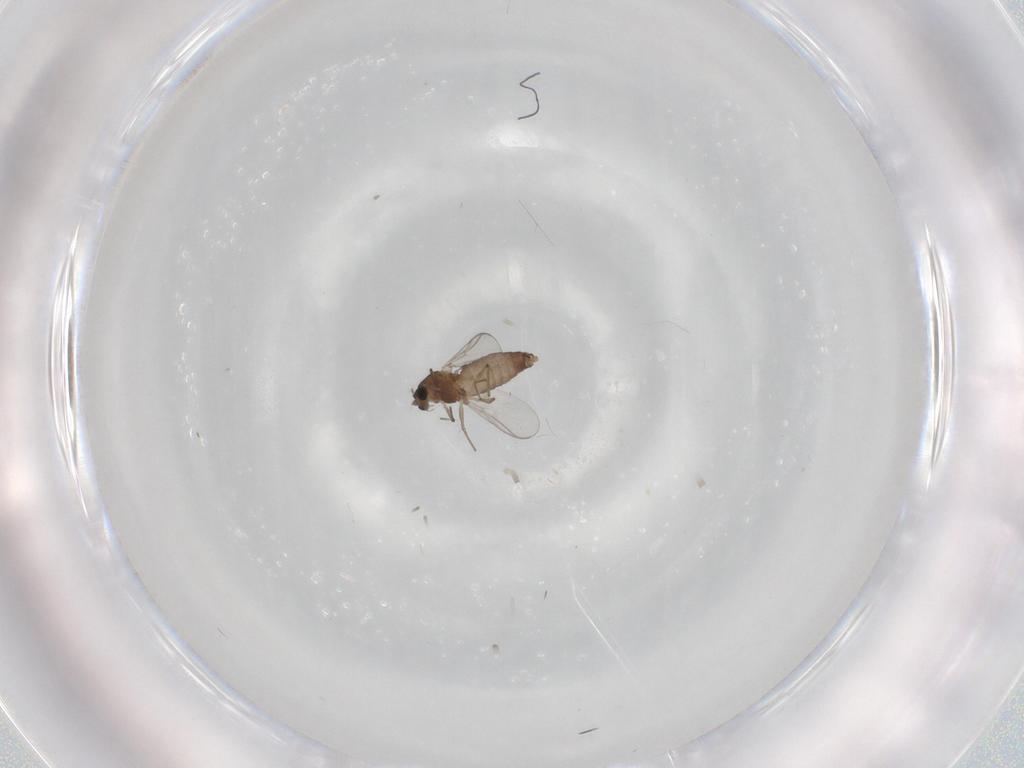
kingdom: Animalia
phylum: Arthropoda
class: Insecta
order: Diptera
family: Chironomidae
